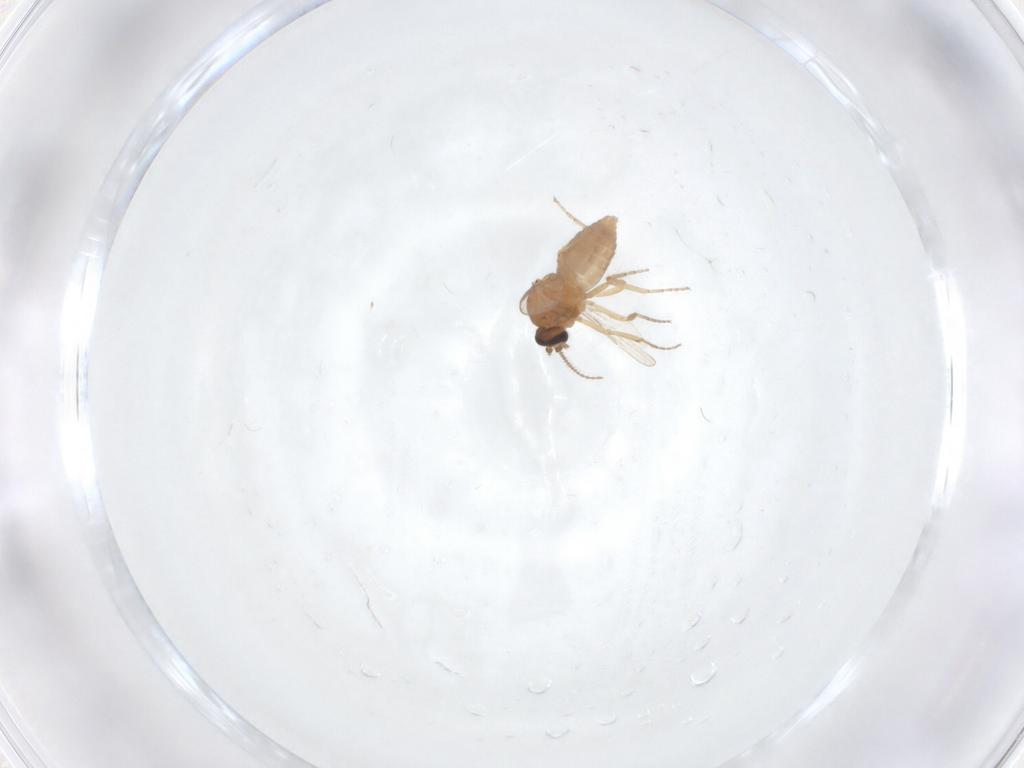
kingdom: Animalia
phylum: Arthropoda
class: Insecta
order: Diptera
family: Ceratopogonidae
